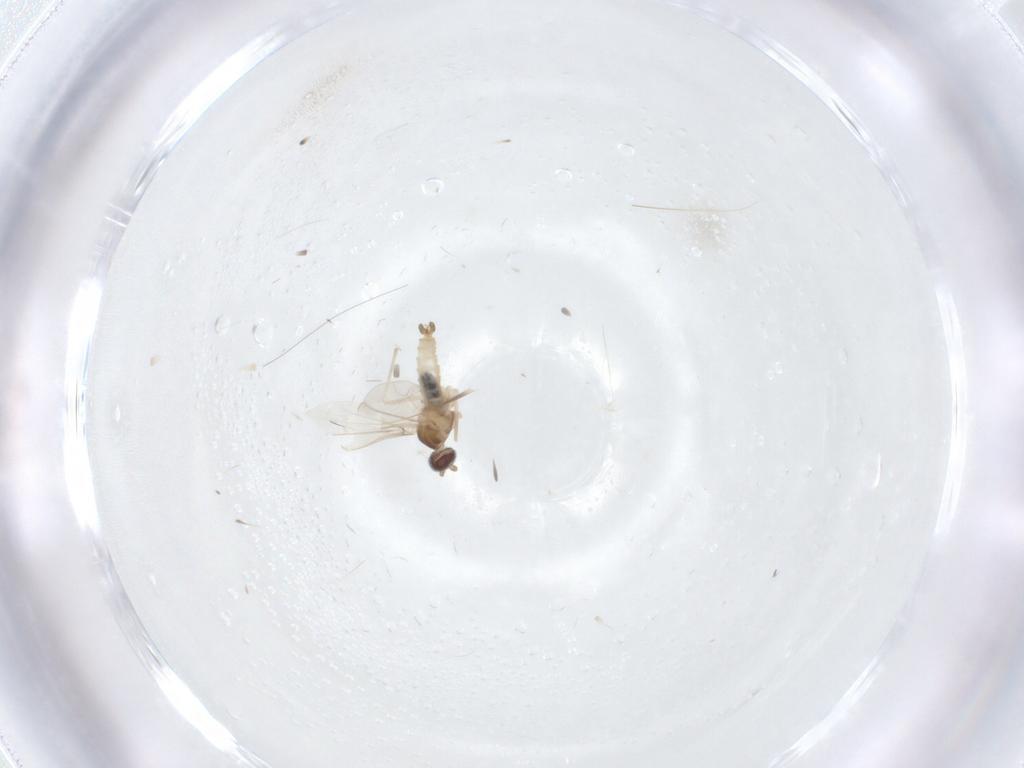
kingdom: Animalia
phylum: Arthropoda
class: Insecta
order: Diptera
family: Cecidomyiidae
